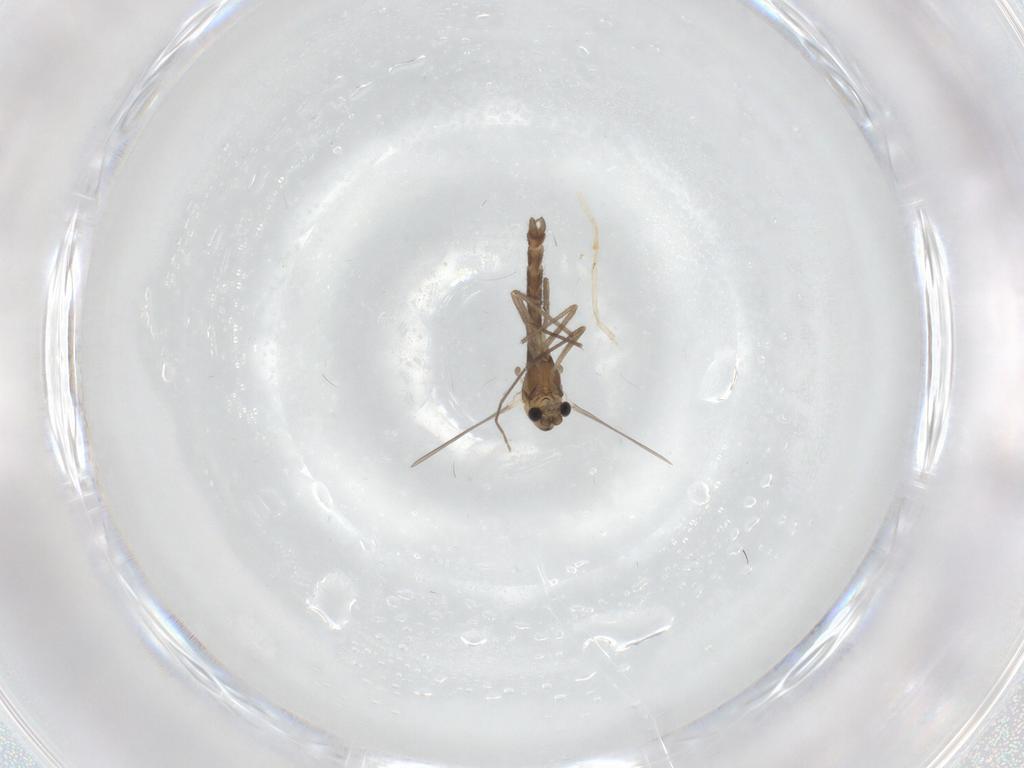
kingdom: Animalia
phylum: Arthropoda
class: Insecta
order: Diptera
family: Chironomidae
